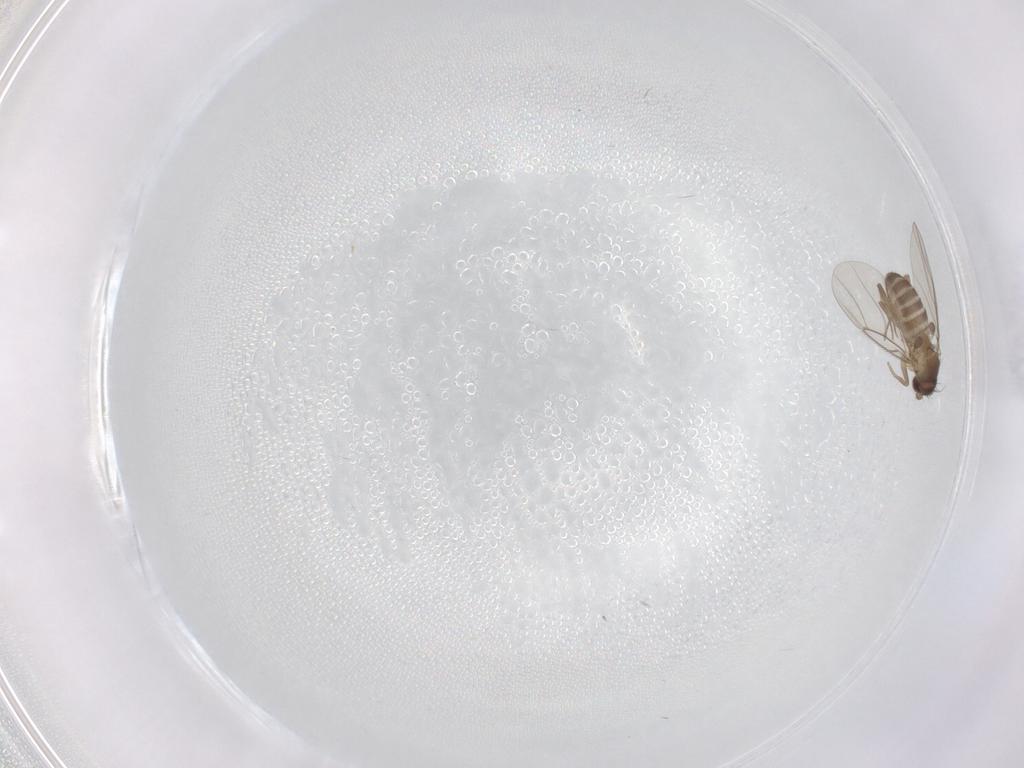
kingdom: Animalia
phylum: Arthropoda
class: Insecta
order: Diptera
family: Phoridae
